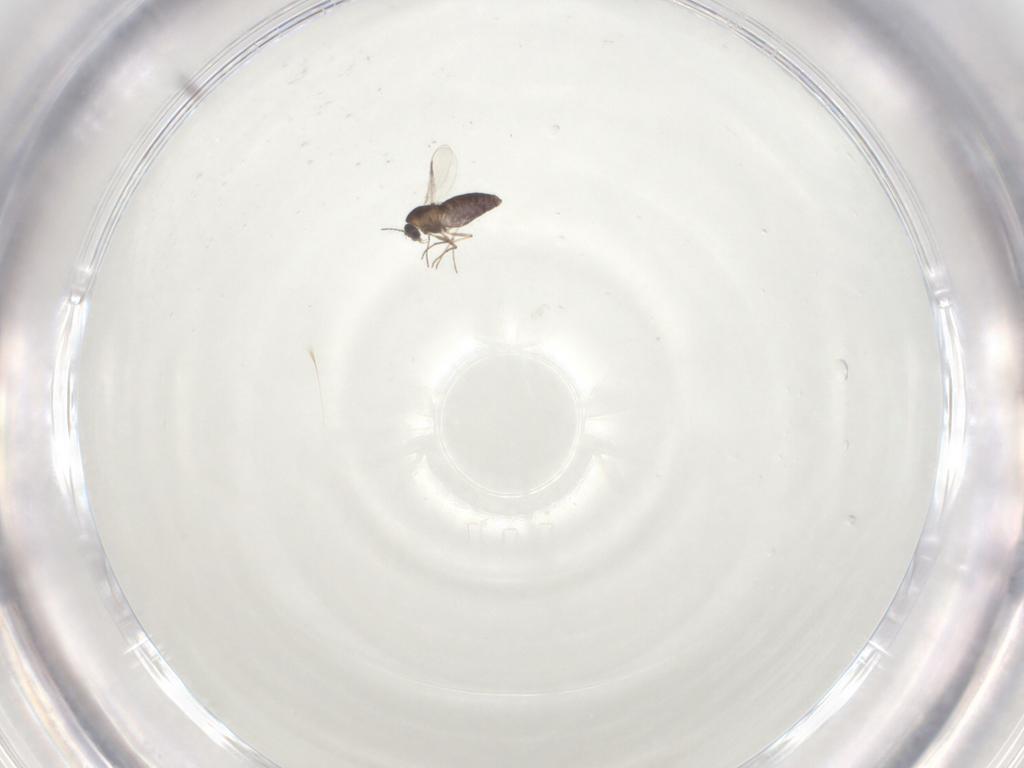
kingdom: Animalia
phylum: Arthropoda
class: Insecta
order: Diptera
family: Chironomidae
